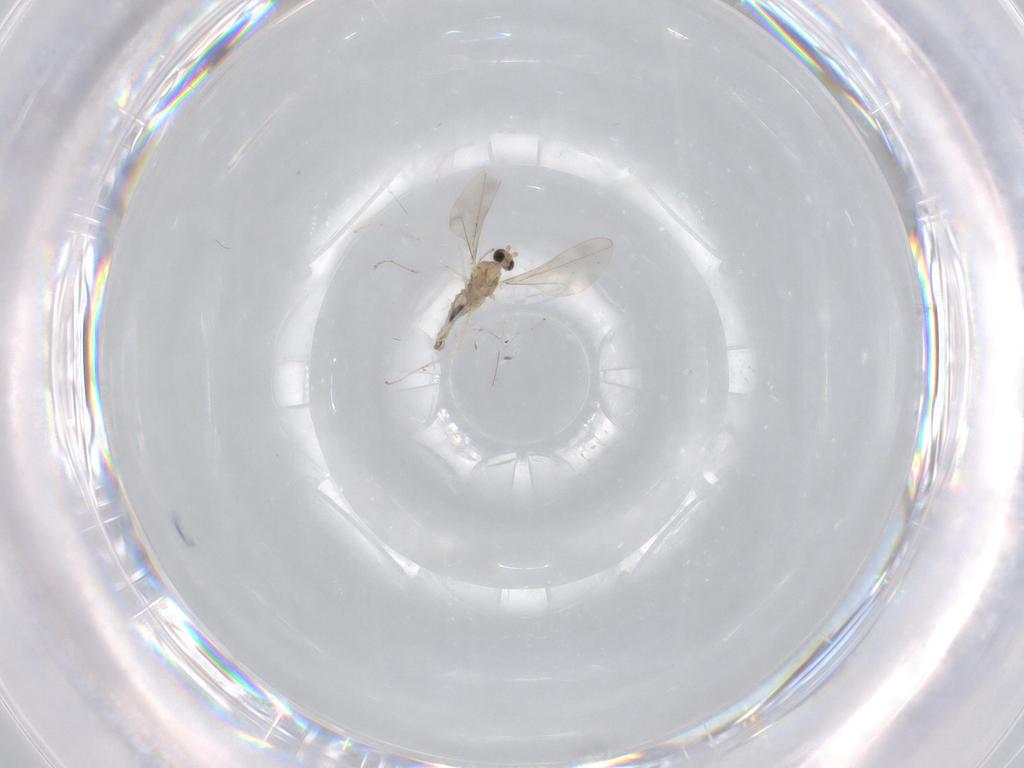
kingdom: Animalia
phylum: Arthropoda
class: Insecta
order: Diptera
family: Cecidomyiidae
